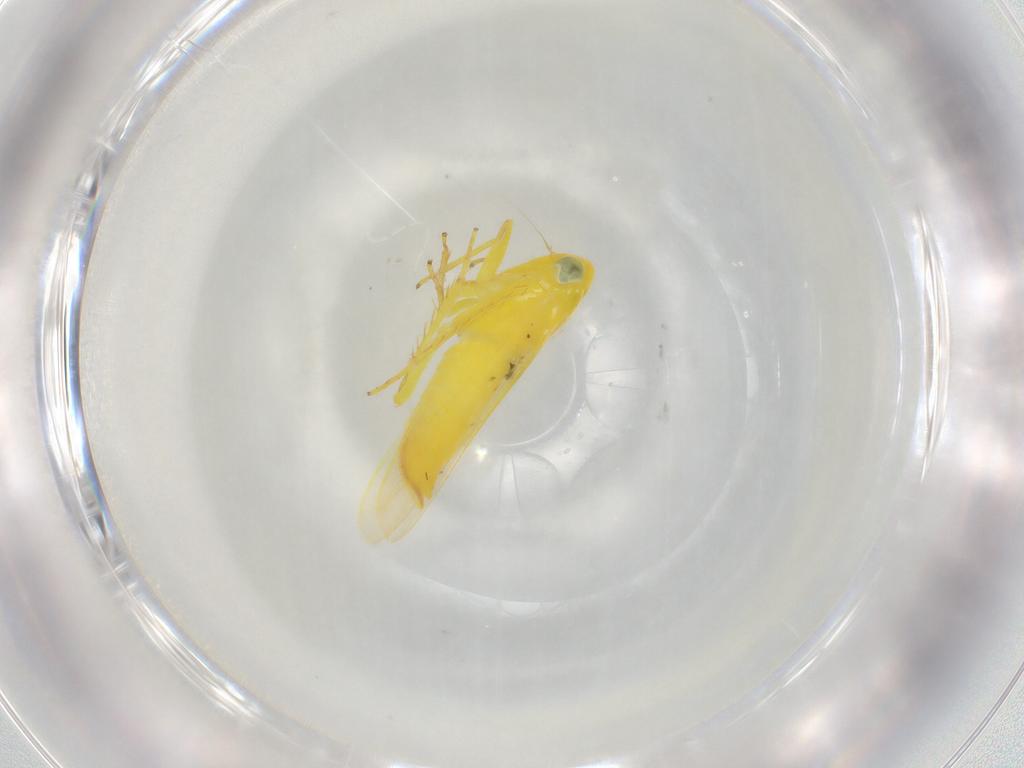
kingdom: Animalia
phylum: Arthropoda
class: Insecta
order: Hemiptera
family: Cicadellidae
